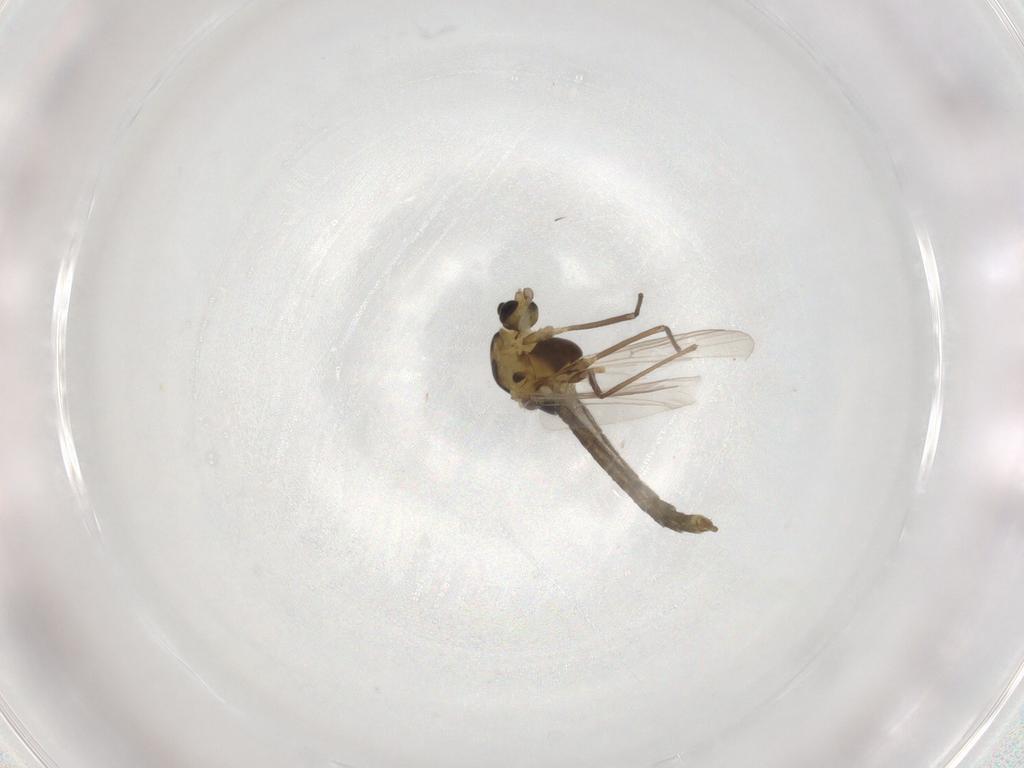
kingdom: Animalia
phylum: Arthropoda
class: Insecta
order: Diptera
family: Chironomidae
